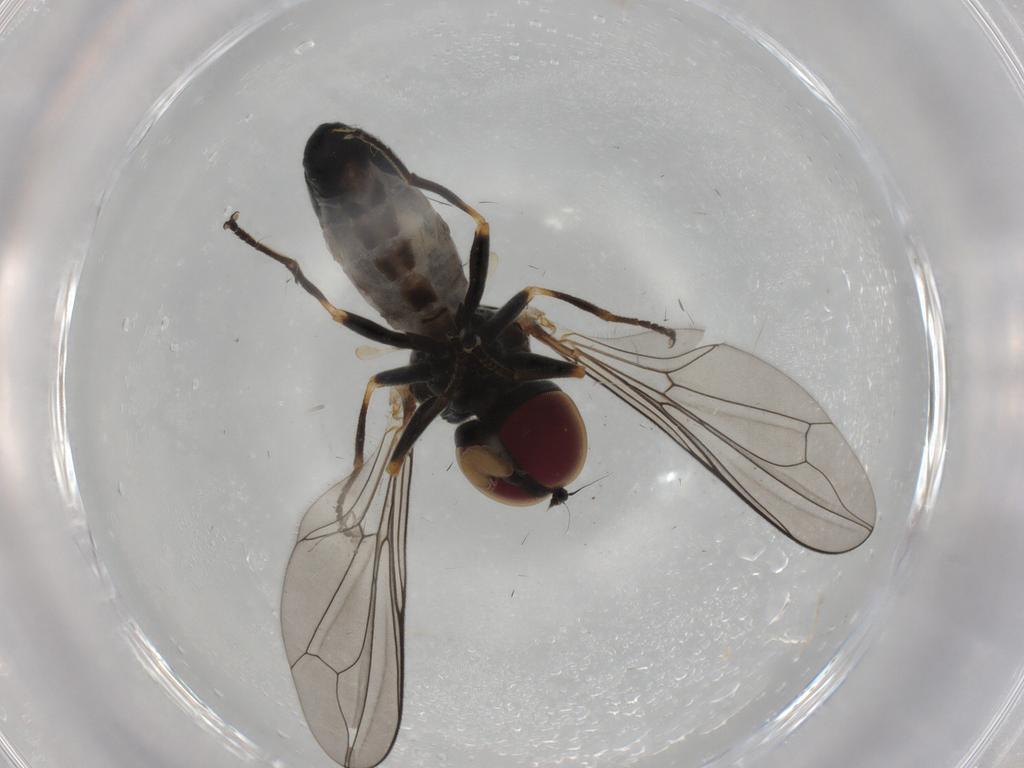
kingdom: Animalia
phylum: Arthropoda
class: Insecta
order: Diptera
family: Pipunculidae
